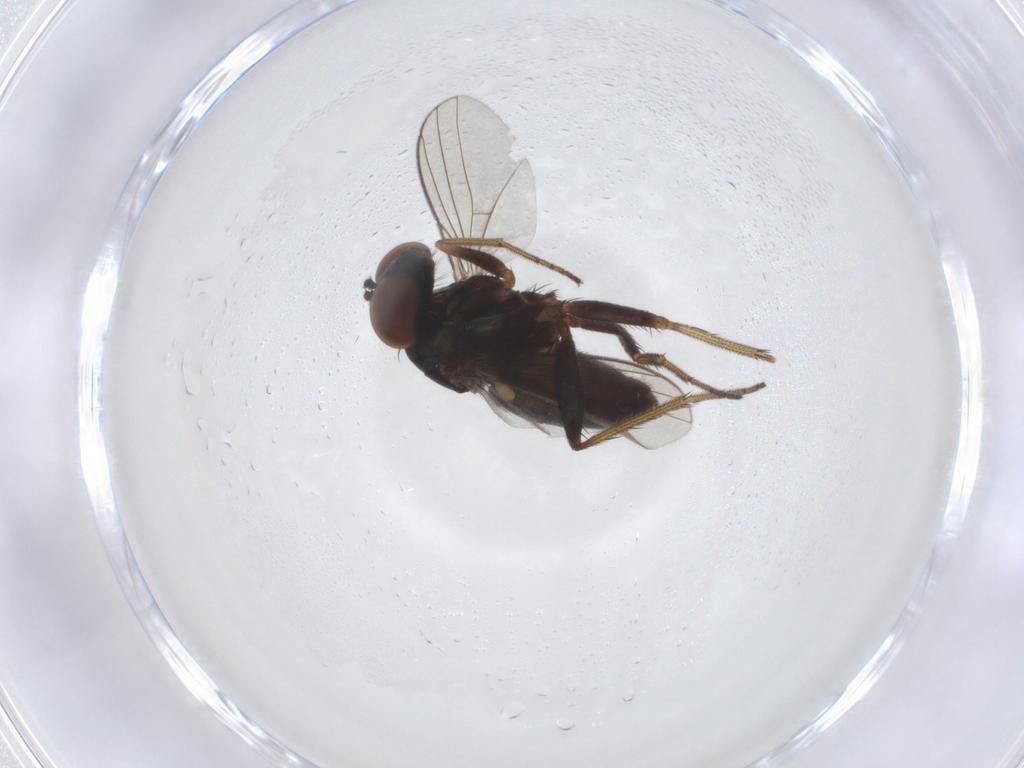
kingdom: Animalia
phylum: Arthropoda
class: Insecta
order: Diptera
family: Dolichopodidae
